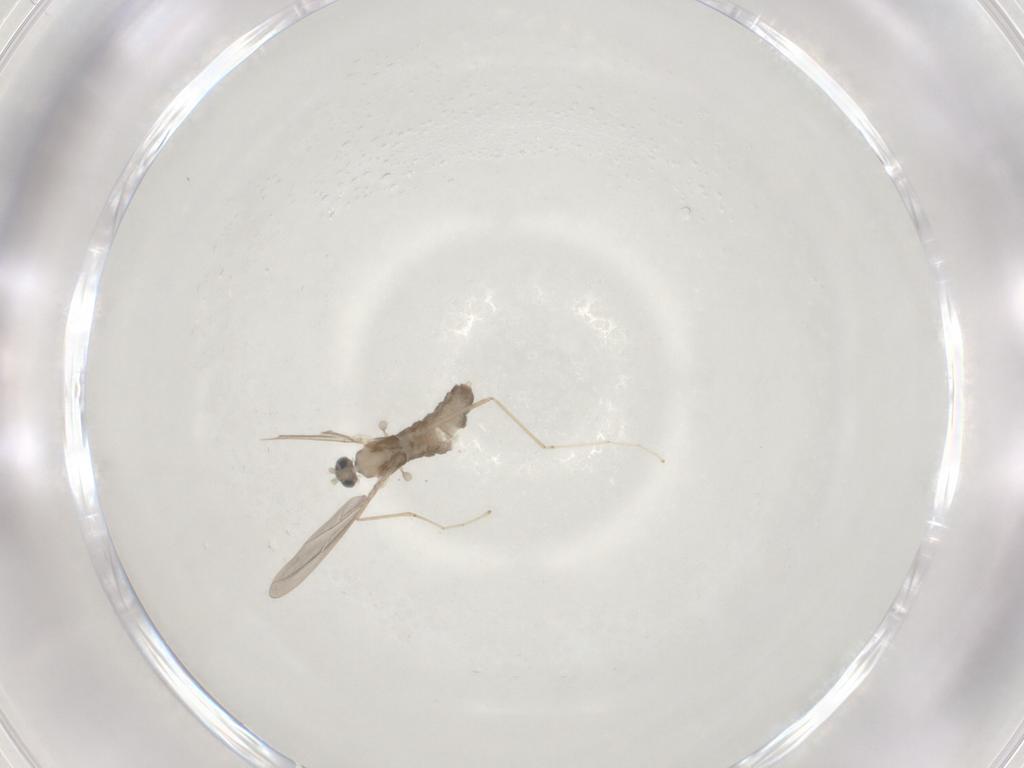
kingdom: Animalia
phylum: Arthropoda
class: Insecta
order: Diptera
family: Cecidomyiidae
